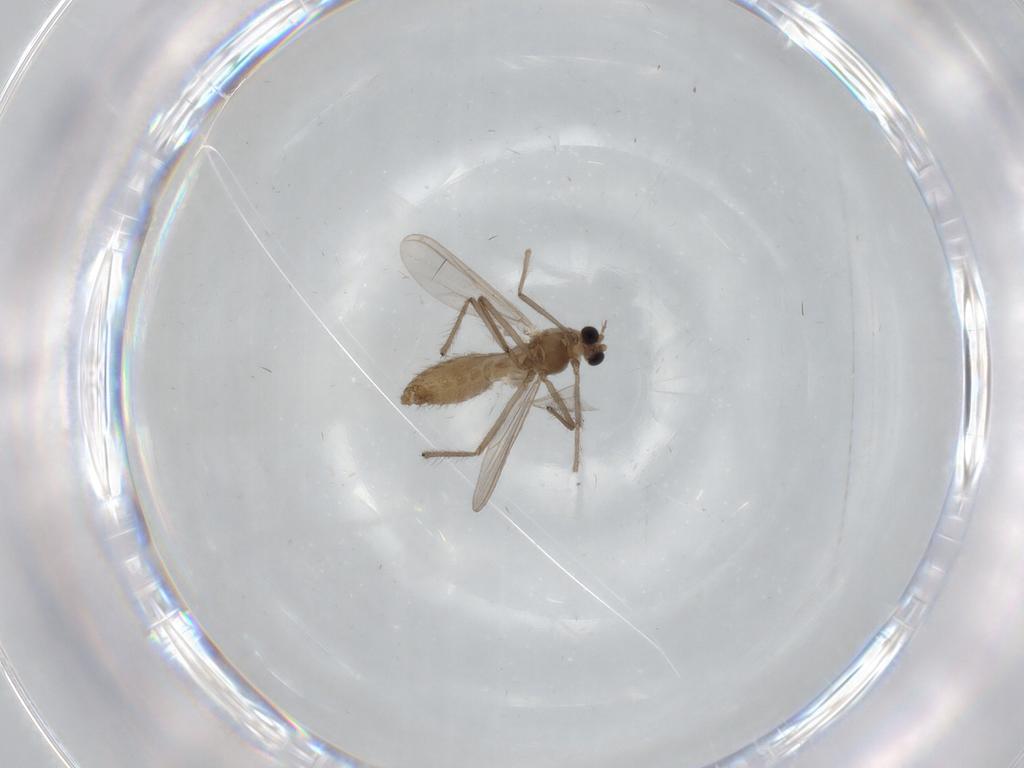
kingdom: Animalia
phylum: Arthropoda
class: Insecta
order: Diptera
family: Chironomidae
